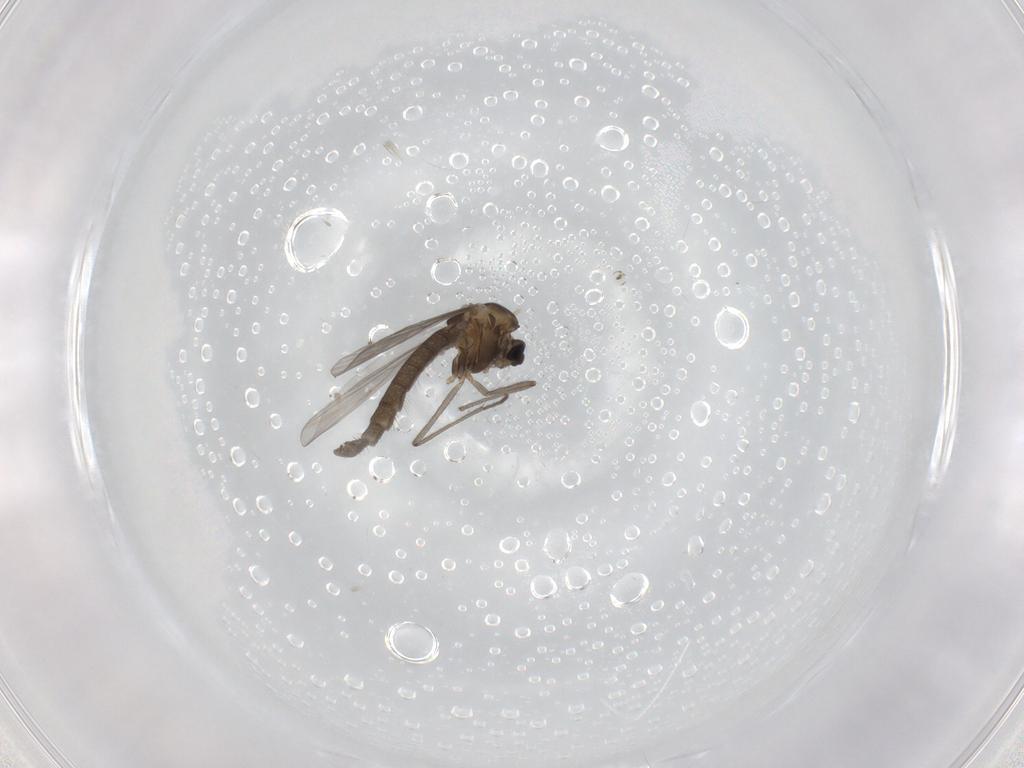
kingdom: Animalia
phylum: Arthropoda
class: Insecta
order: Diptera
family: Chironomidae
